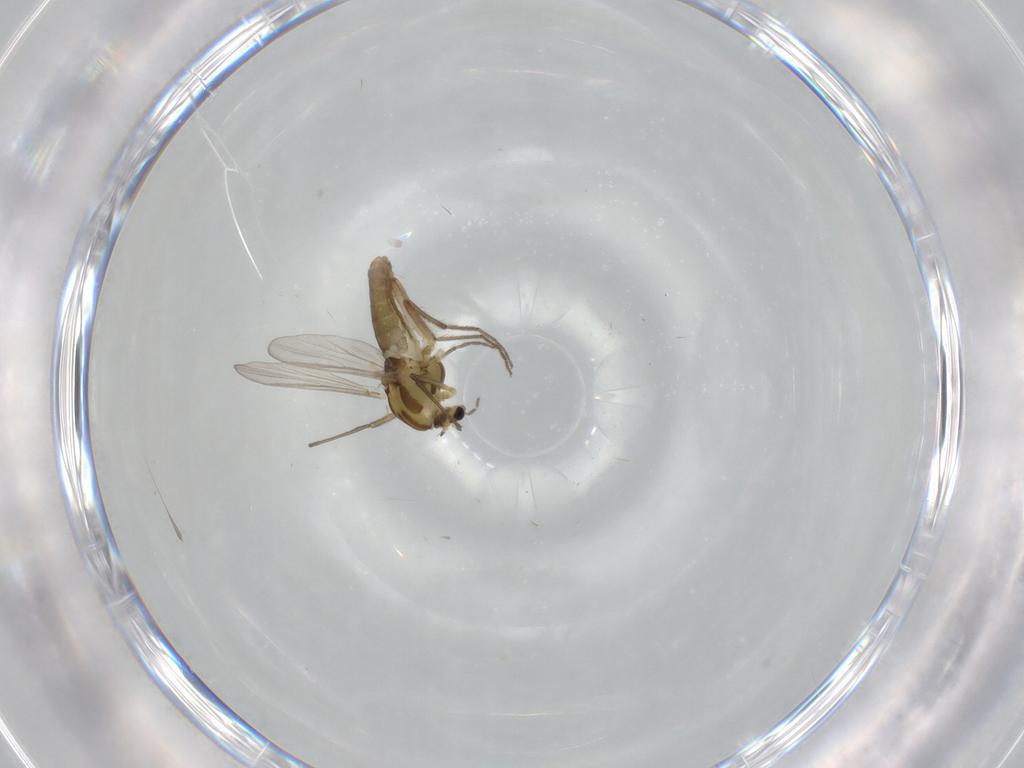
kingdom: Animalia
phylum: Arthropoda
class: Insecta
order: Diptera
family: Chironomidae
